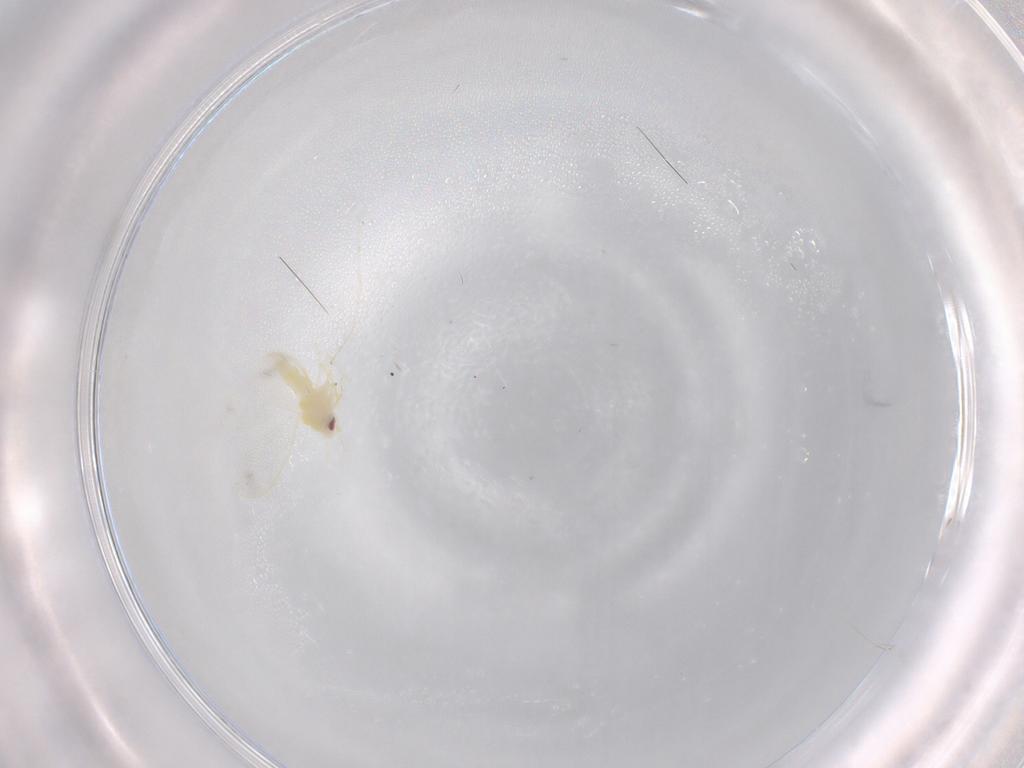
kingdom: Animalia
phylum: Arthropoda
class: Insecta
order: Hemiptera
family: Aleyrodidae
